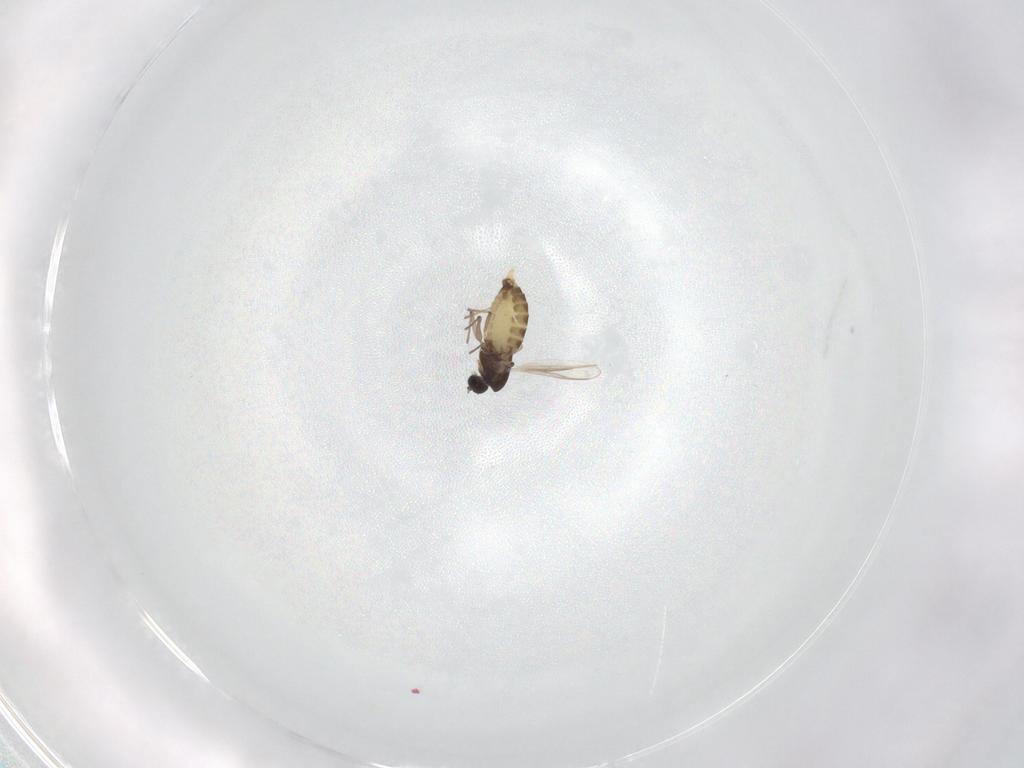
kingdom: Animalia
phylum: Arthropoda
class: Insecta
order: Diptera
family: Chironomidae
